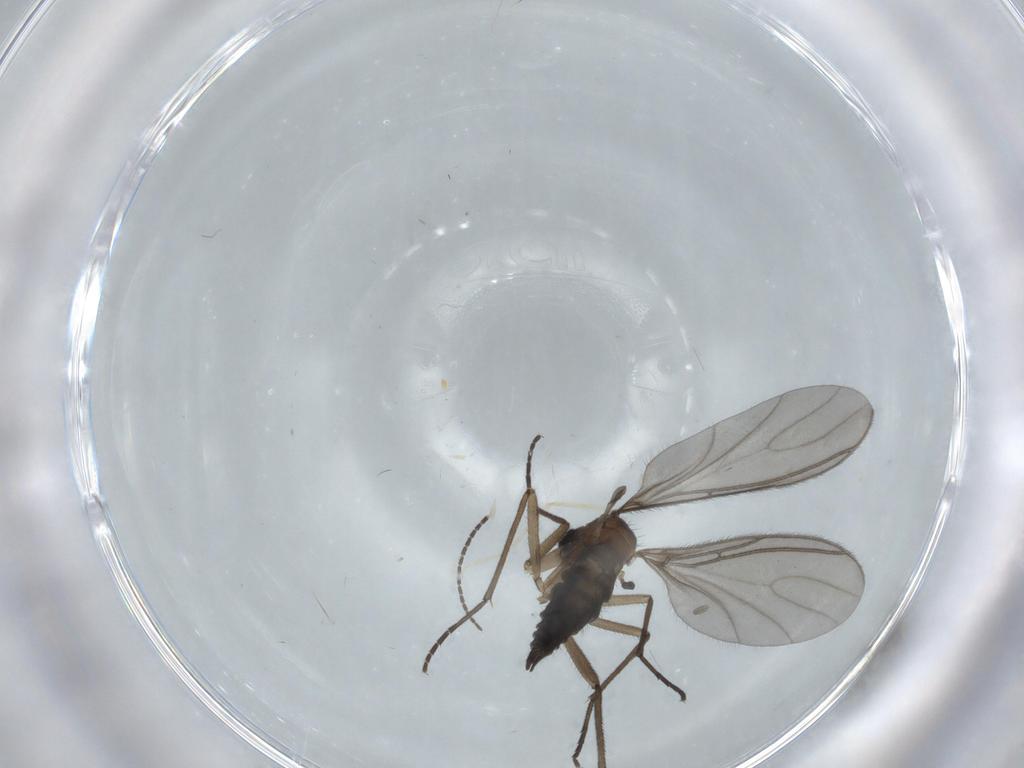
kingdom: Animalia
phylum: Arthropoda
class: Insecta
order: Diptera
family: Sciaridae
